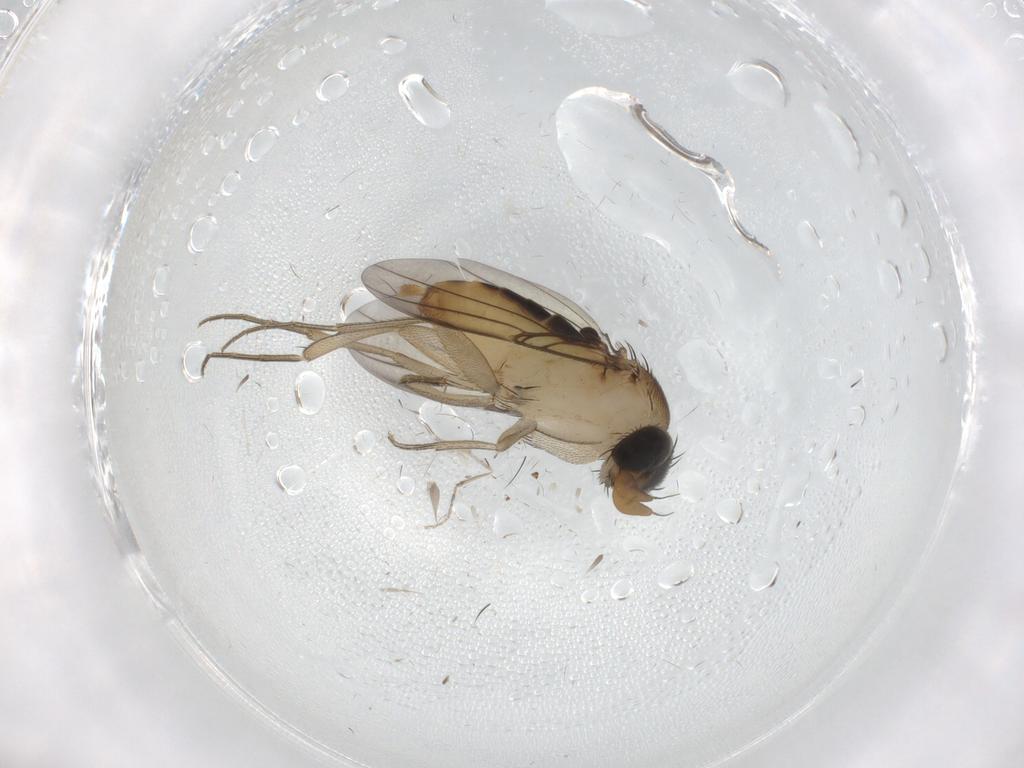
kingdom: Animalia
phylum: Arthropoda
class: Insecta
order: Diptera
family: Phoridae
